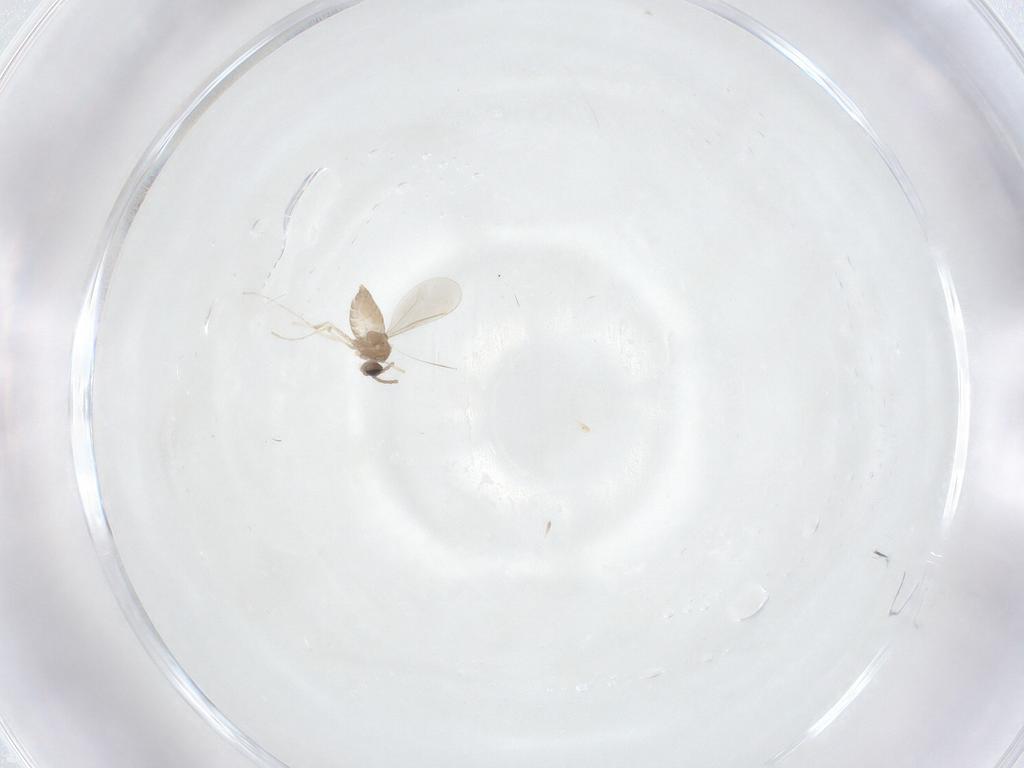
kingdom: Animalia
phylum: Arthropoda
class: Insecta
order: Diptera
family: Cecidomyiidae
